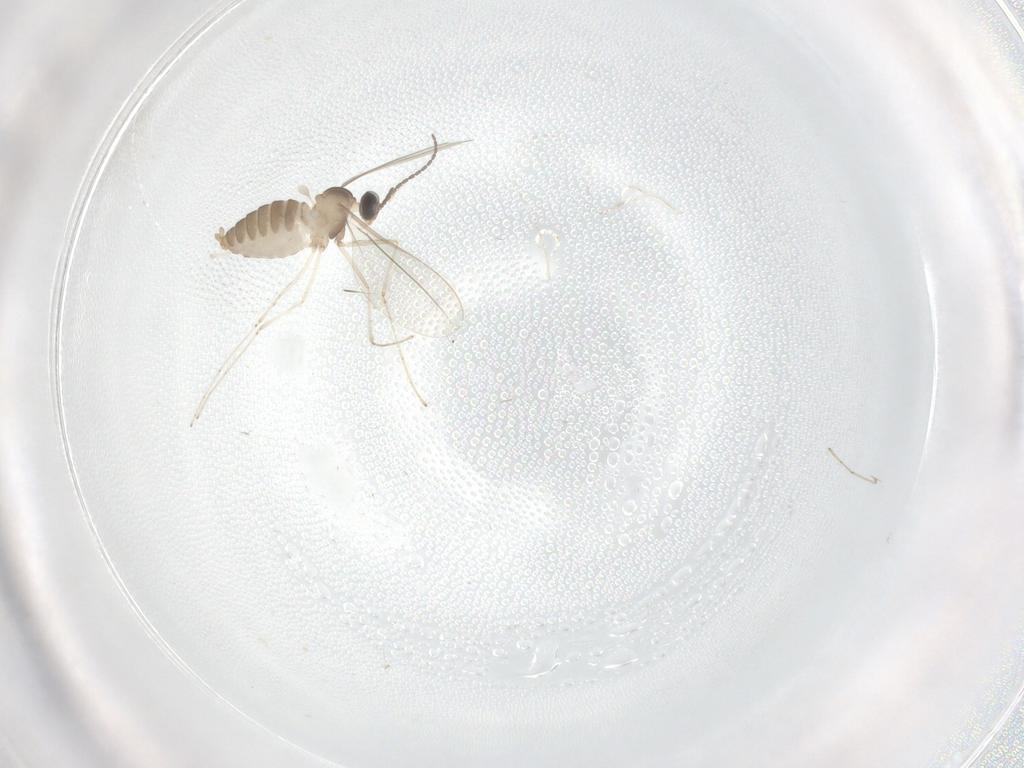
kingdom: Animalia
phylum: Arthropoda
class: Insecta
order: Diptera
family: Cecidomyiidae
